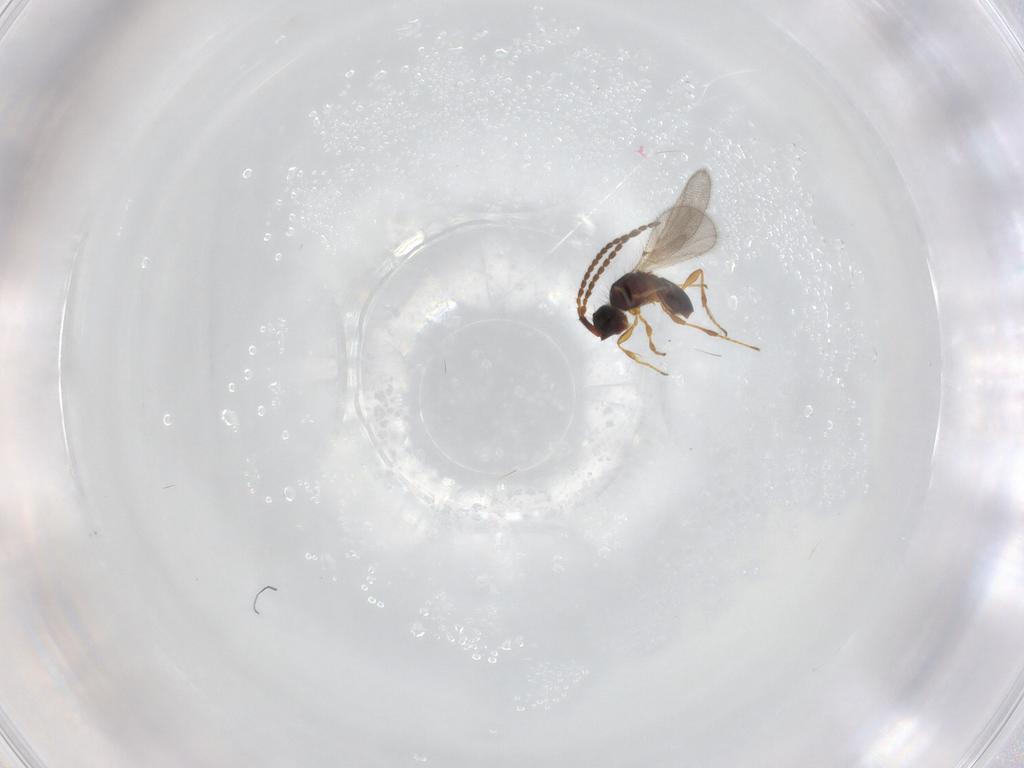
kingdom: Animalia
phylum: Arthropoda
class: Insecta
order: Hymenoptera
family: Diapriidae
